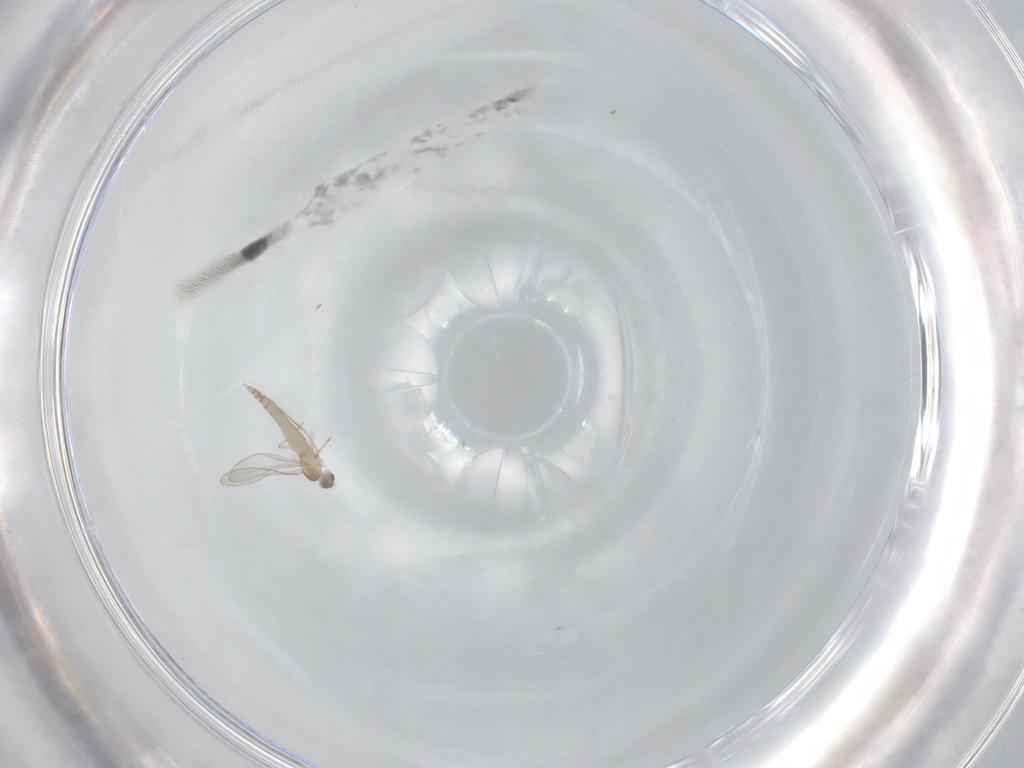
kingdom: Animalia
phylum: Arthropoda
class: Insecta
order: Diptera
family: Cecidomyiidae
